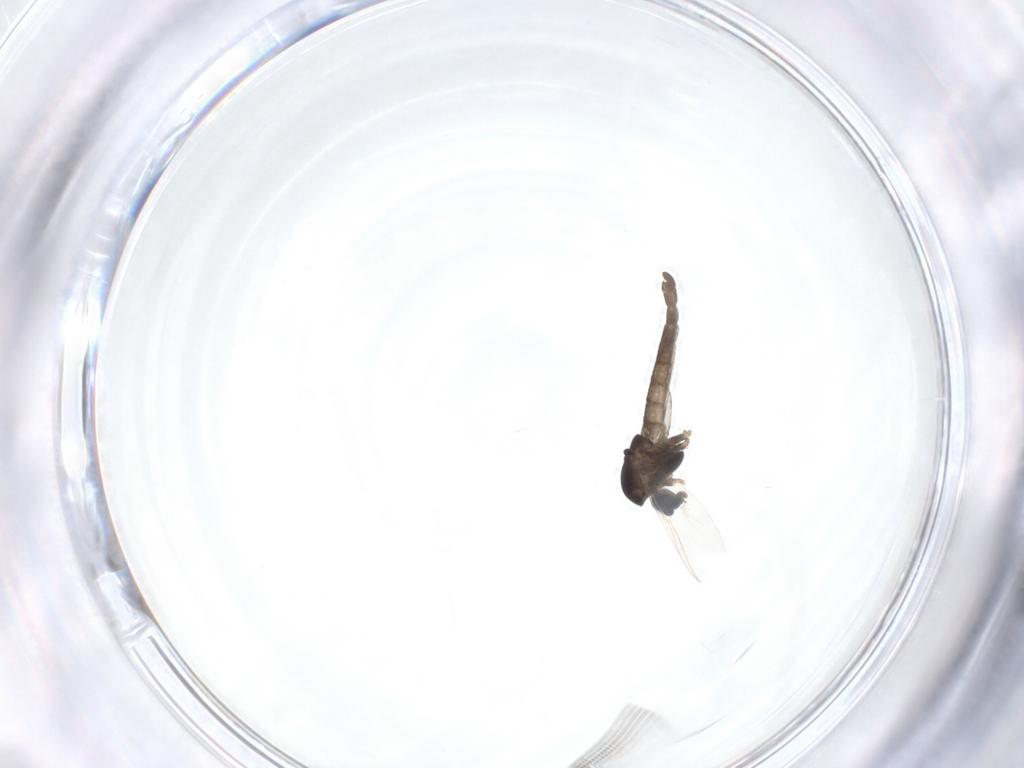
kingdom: Animalia
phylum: Arthropoda
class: Insecta
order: Diptera
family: Chironomidae
